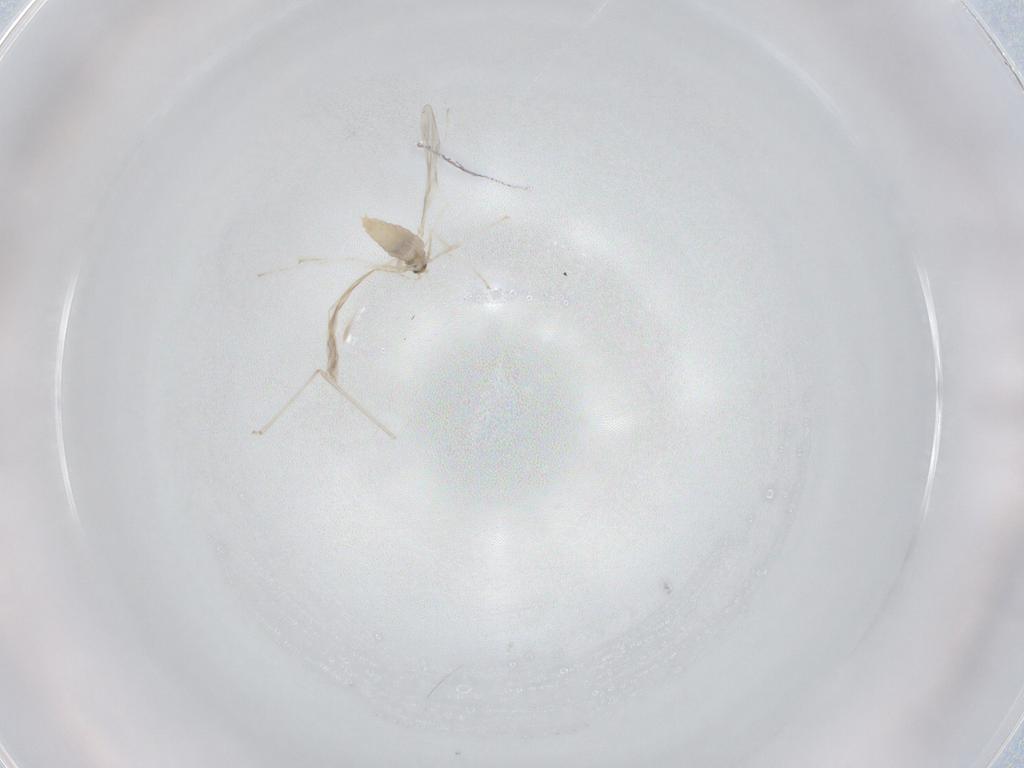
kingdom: Animalia
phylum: Arthropoda
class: Insecta
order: Diptera
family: Cecidomyiidae
